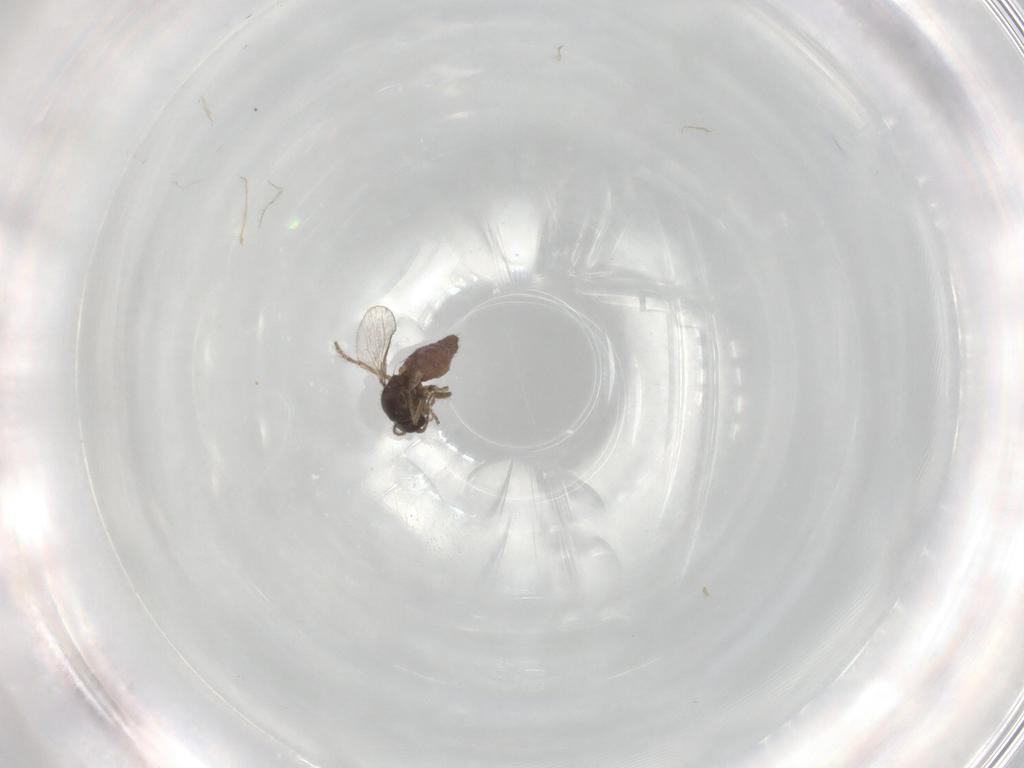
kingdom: Animalia
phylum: Arthropoda
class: Insecta
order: Diptera
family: Ceratopogonidae
